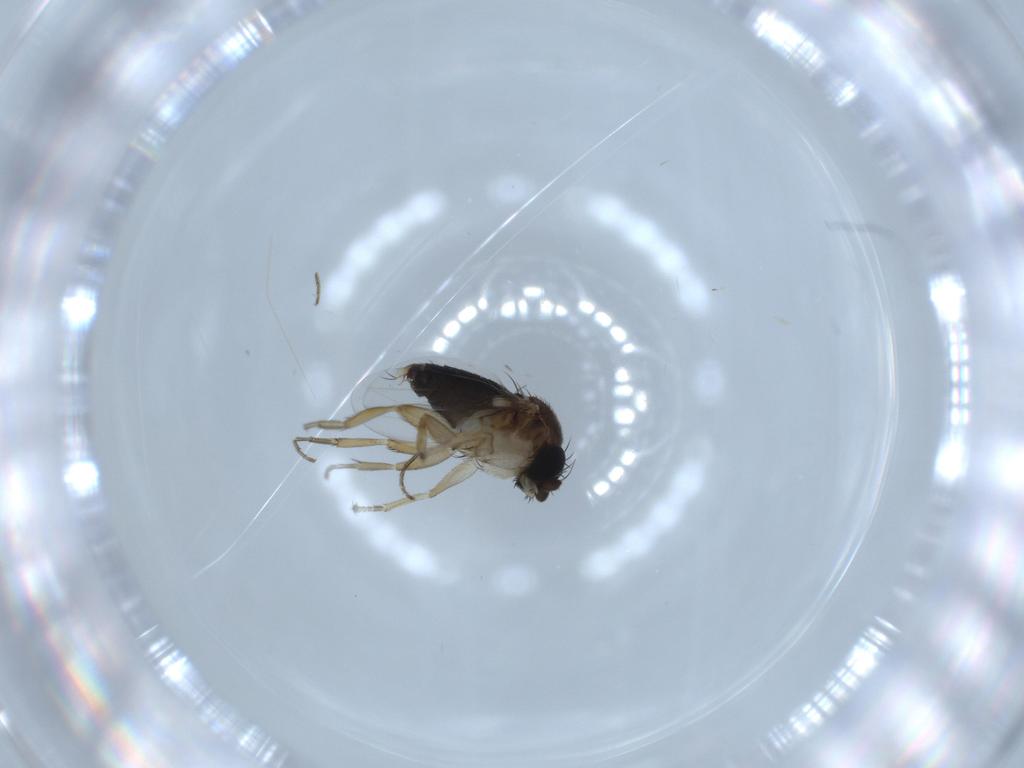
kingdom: Animalia
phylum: Arthropoda
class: Insecta
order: Diptera
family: Phoridae
